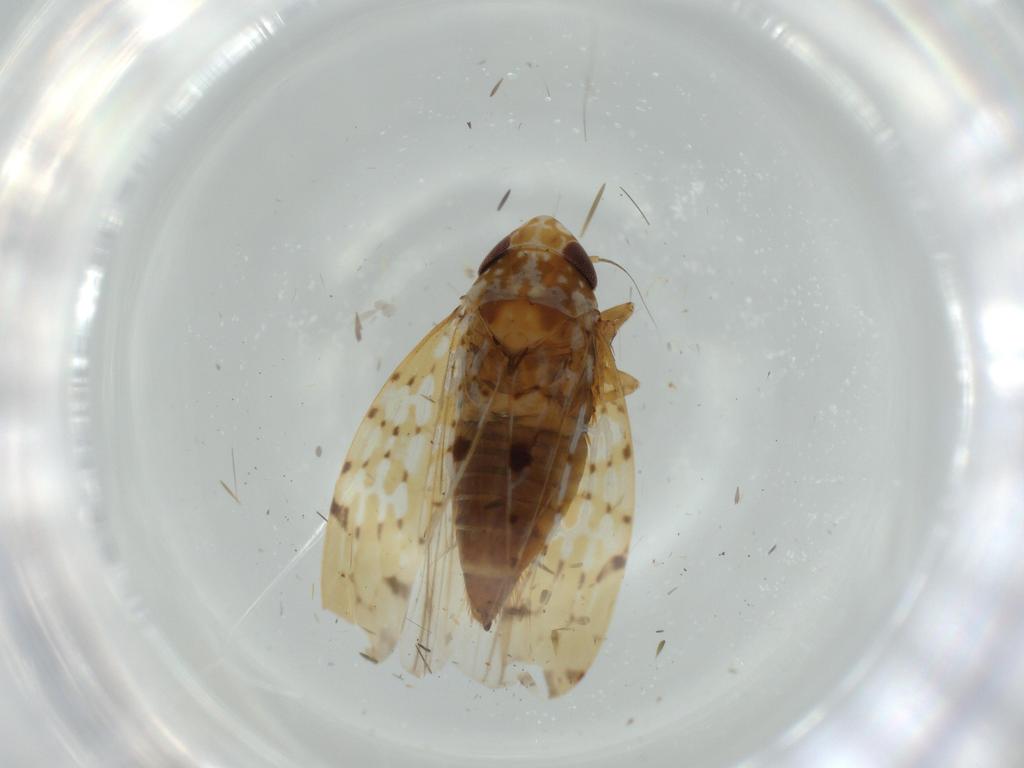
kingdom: Animalia
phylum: Arthropoda
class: Insecta
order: Hemiptera
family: Cicadellidae
